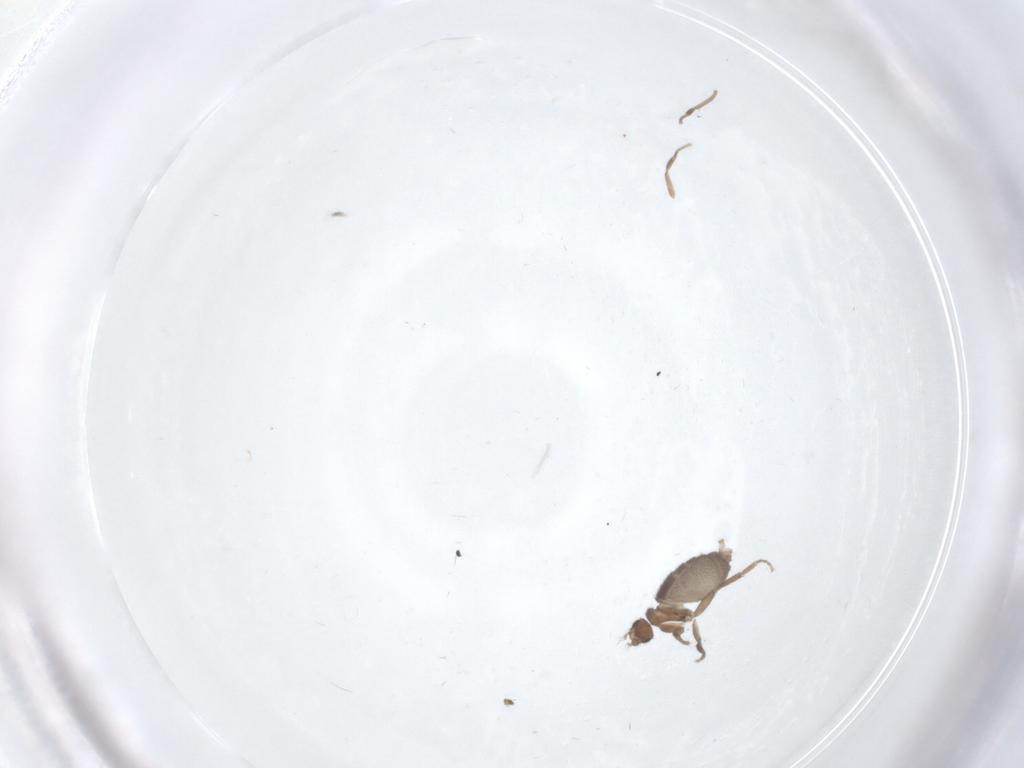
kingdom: Animalia
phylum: Arthropoda
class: Insecta
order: Diptera
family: Phoridae
